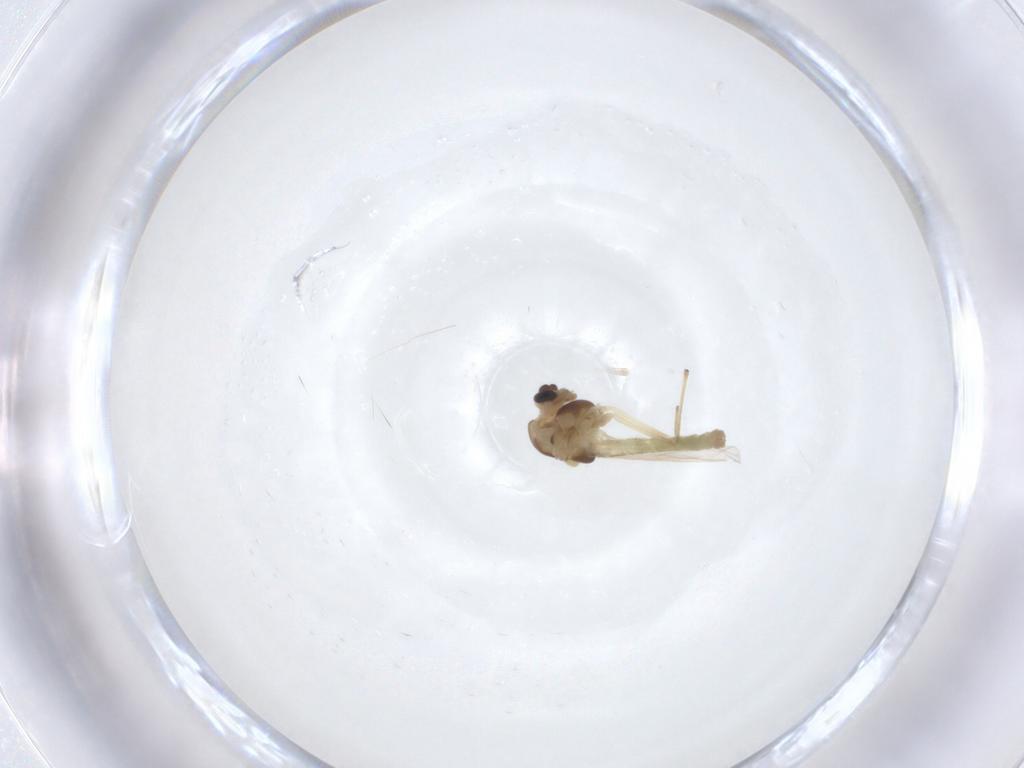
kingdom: Animalia
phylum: Arthropoda
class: Insecta
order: Diptera
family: Chironomidae
